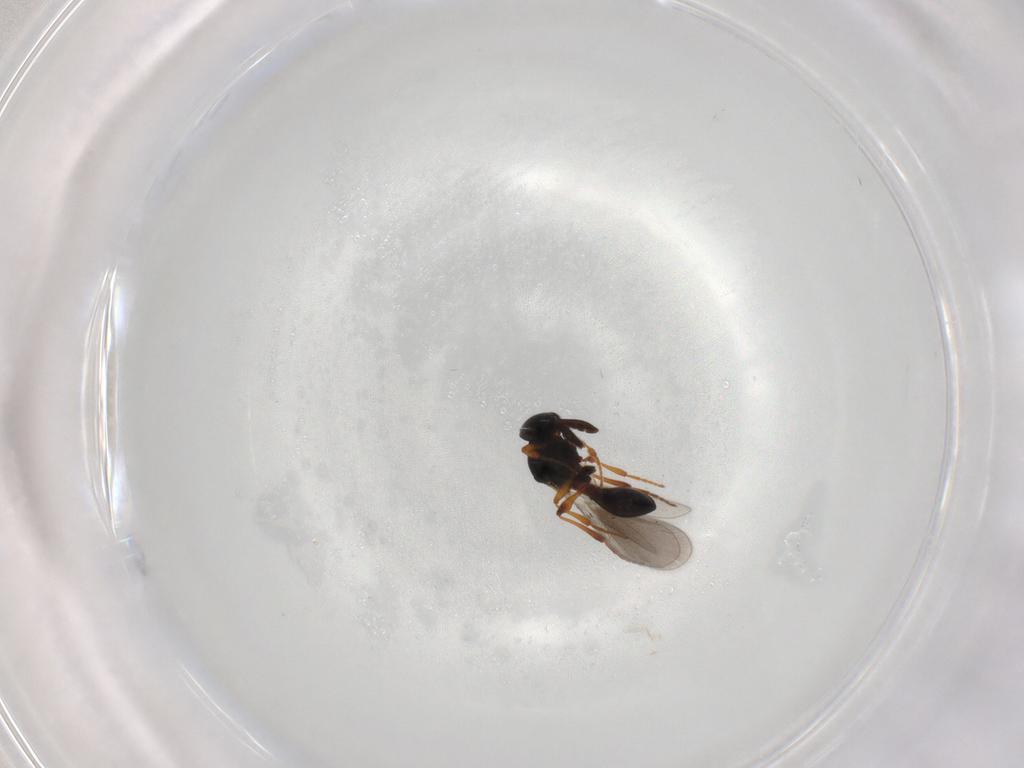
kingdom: Animalia
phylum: Arthropoda
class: Insecta
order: Hymenoptera
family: Platygastridae
